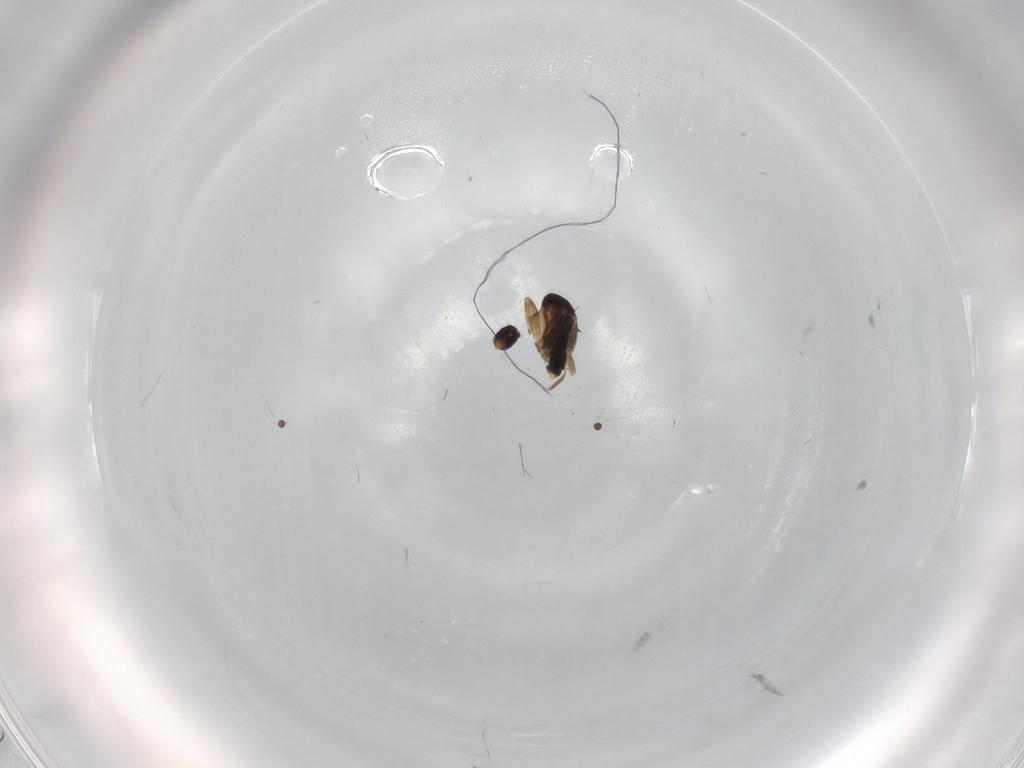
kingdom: Animalia
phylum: Arthropoda
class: Insecta
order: Diptera
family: Phoridae
